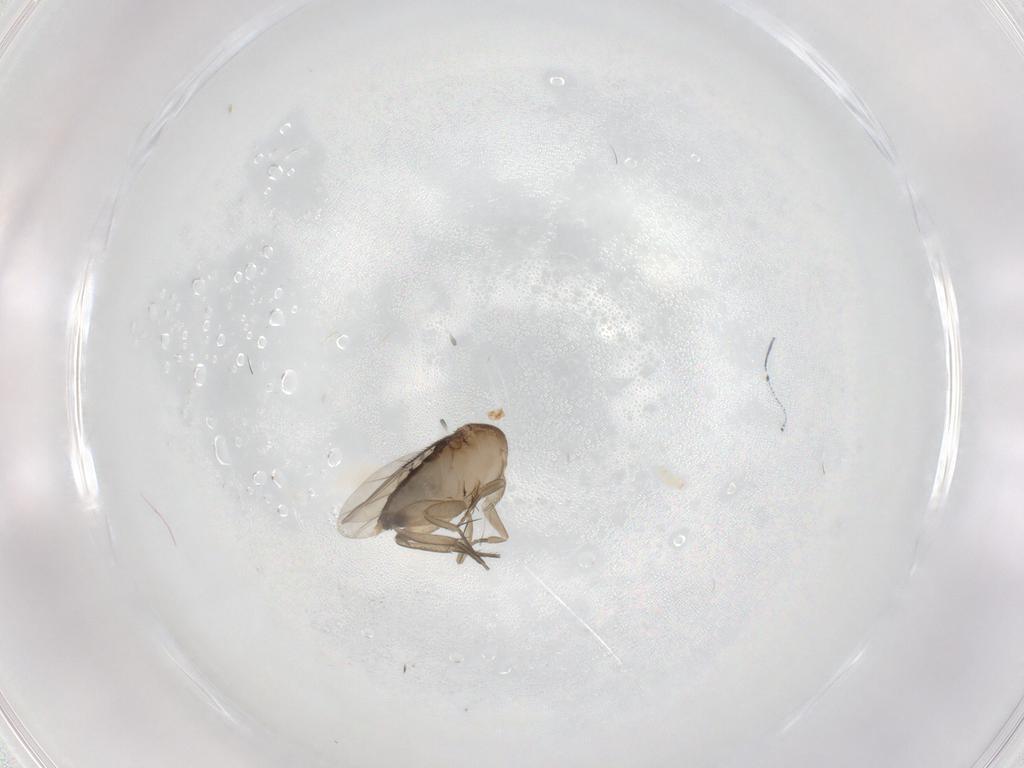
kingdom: Animalia
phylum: Arthropoda
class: Insecta
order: Diptera
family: Phoridae
